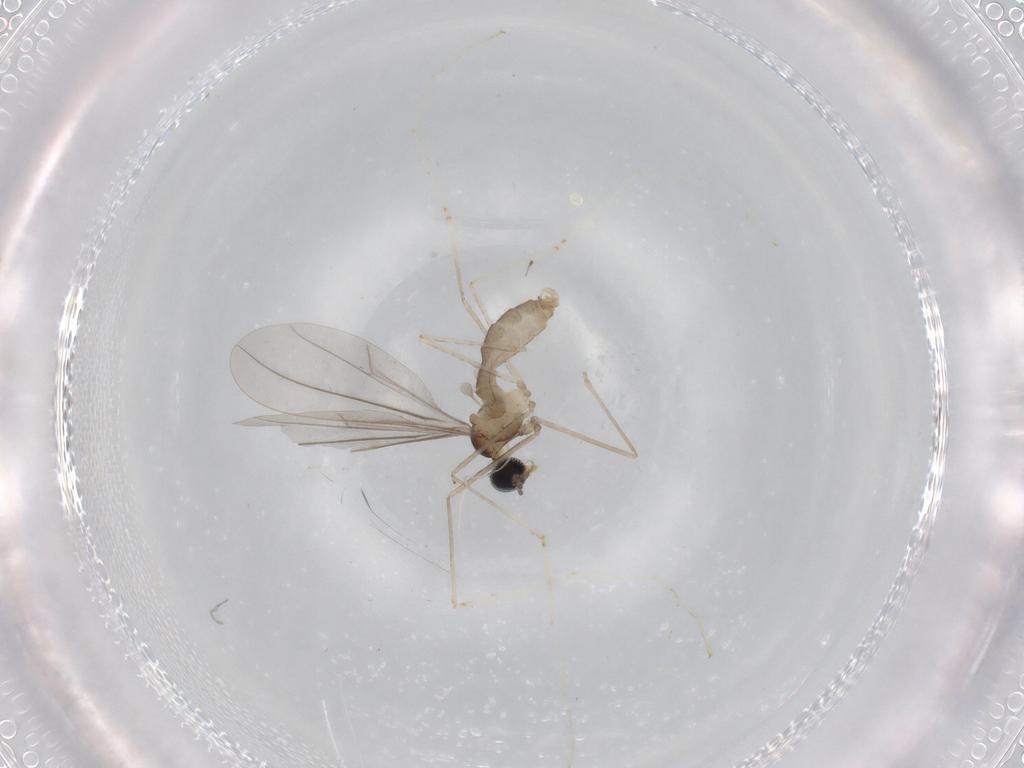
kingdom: Animalia
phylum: Arthropoda
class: Insecta
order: Diptera
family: Cecidomyiidae
